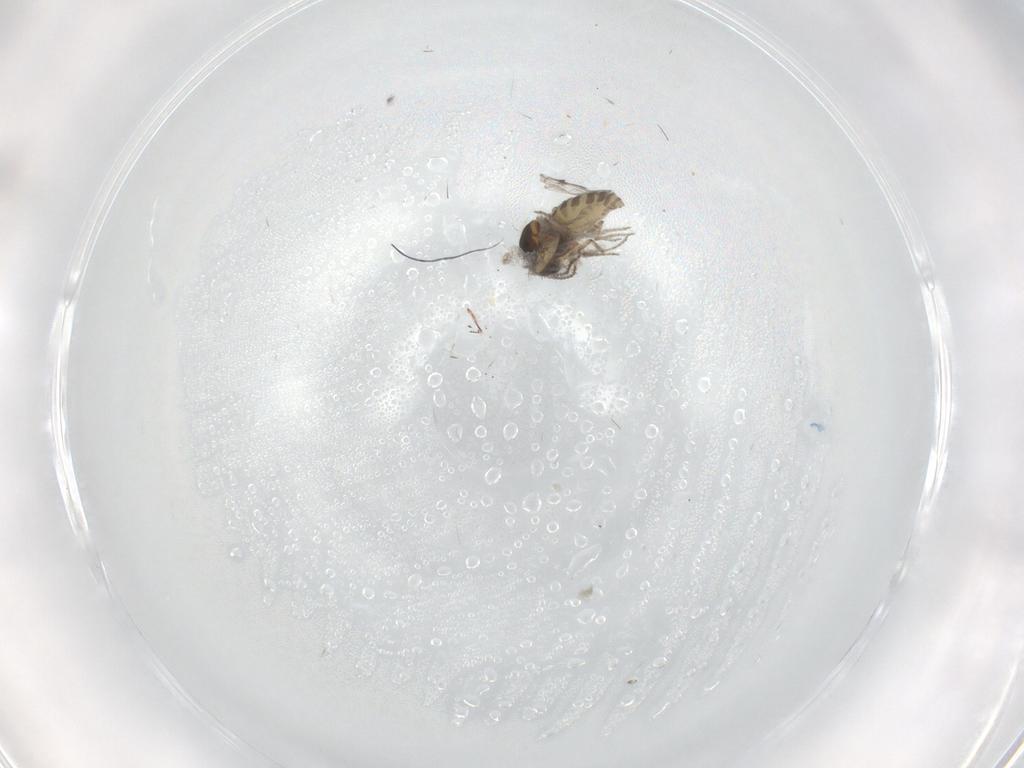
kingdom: Animalia
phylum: Arthropoda
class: Insecta
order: Diptera
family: Ceratopogonidae
